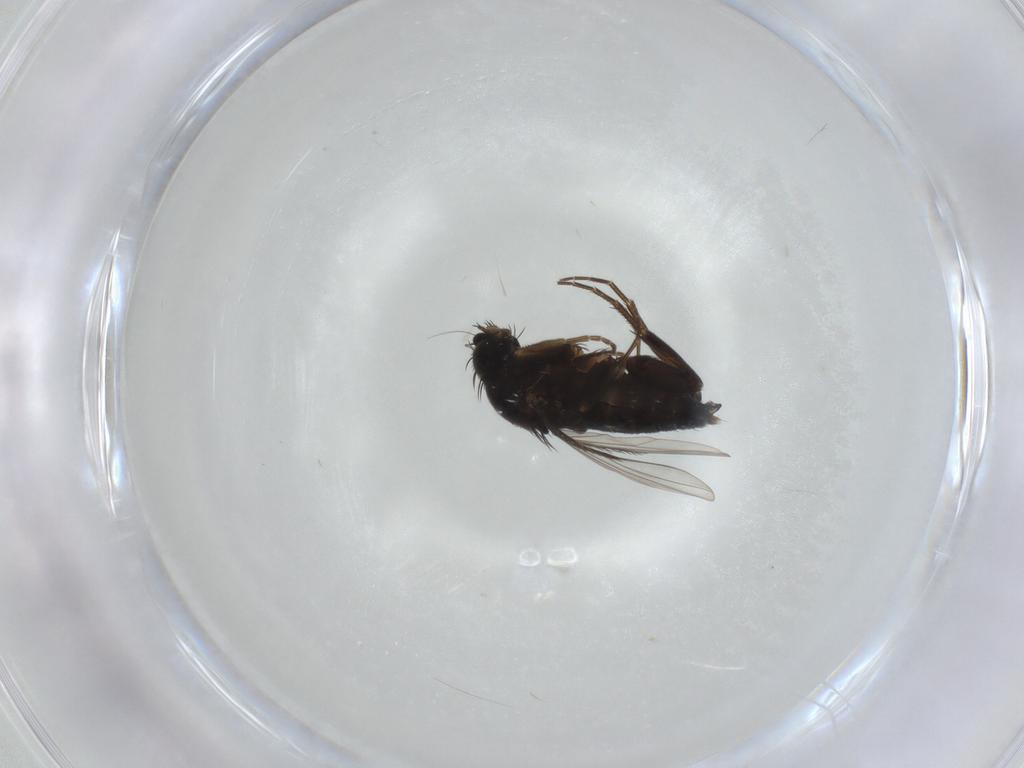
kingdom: Animalia
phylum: Arthropoda
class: Insecta
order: Diptera
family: Phoridae
